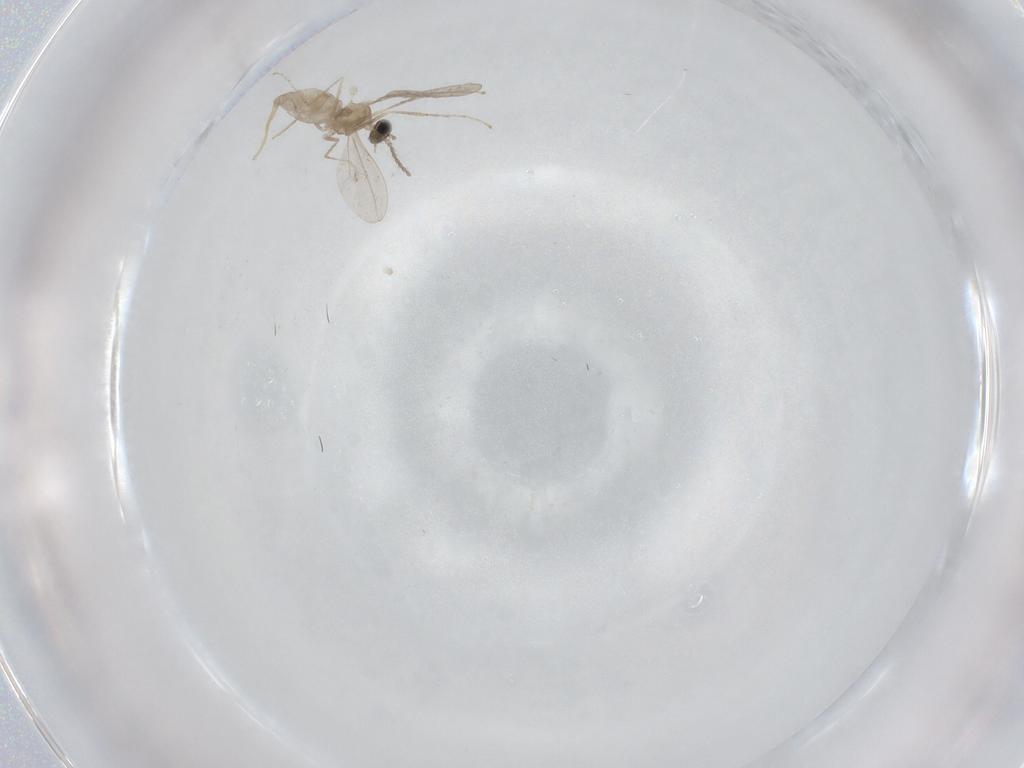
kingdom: Animalia
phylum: Arthropoda
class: Insecta
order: Diptera
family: Cecidomyiidae
